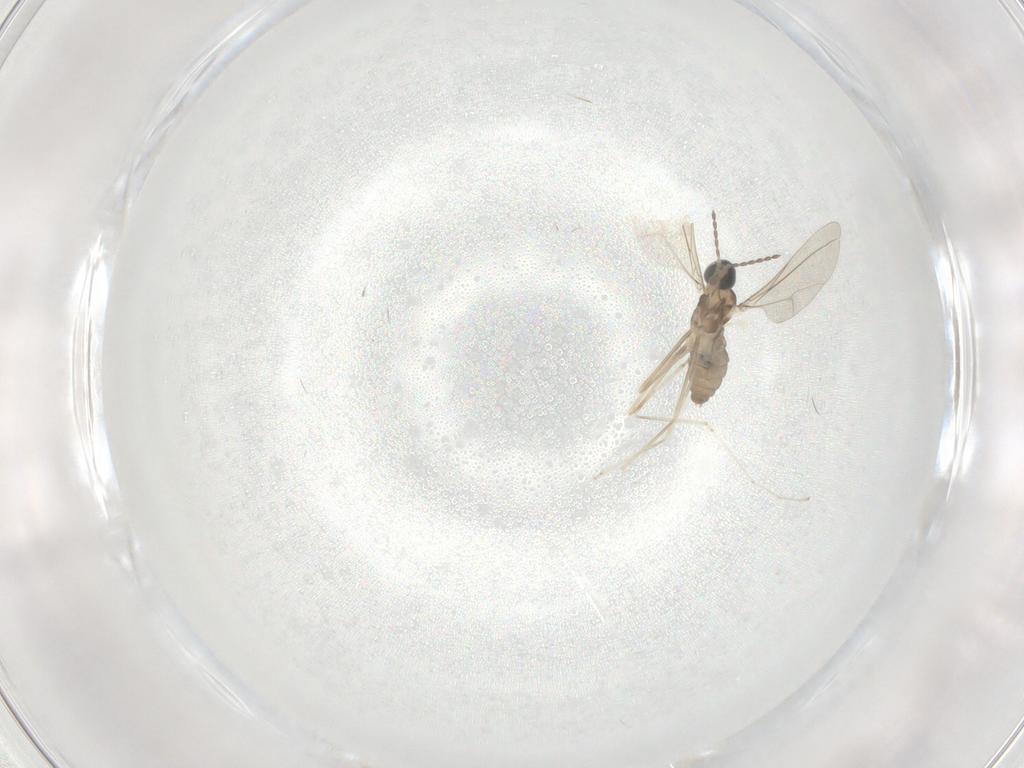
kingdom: Animalia
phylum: Arthropoda
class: Insecta
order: Diptera
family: Cecidomyiidae
